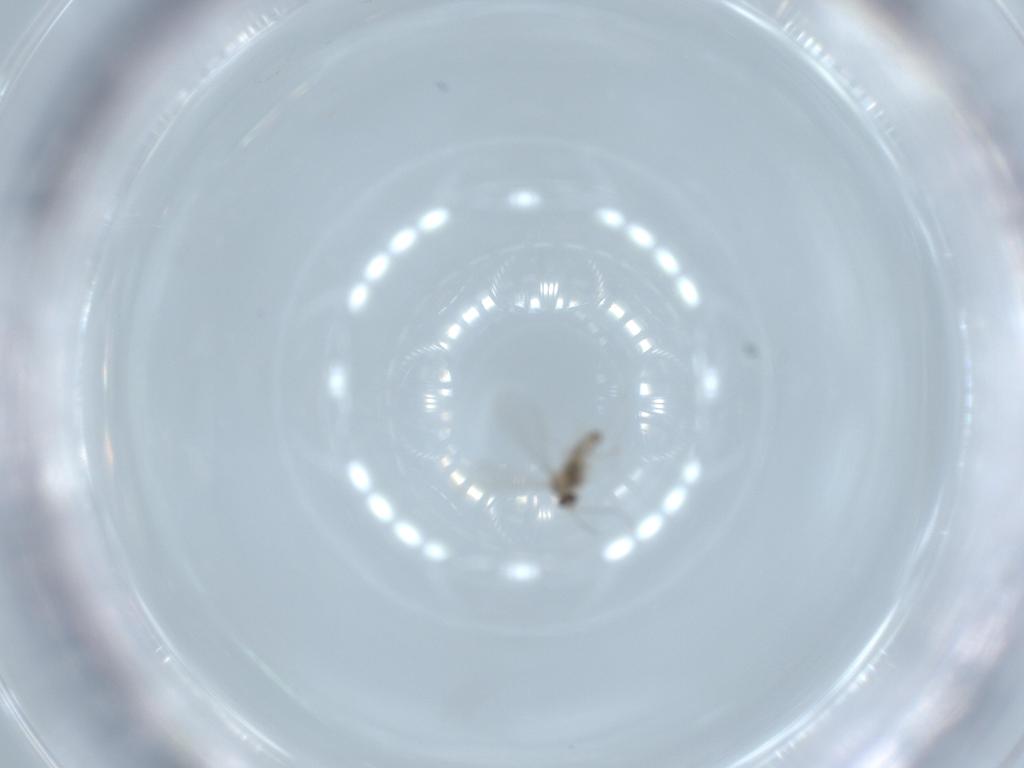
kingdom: Animalia
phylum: Arthropoda
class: Insecta
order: Diptera
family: Cecidomyiidae
